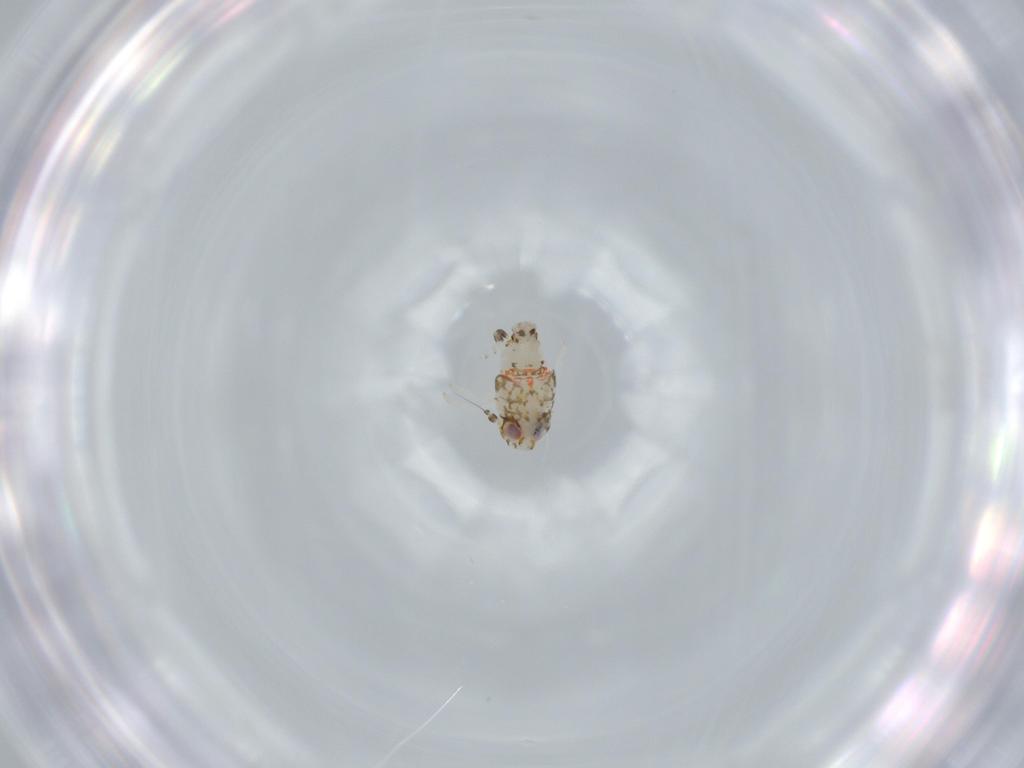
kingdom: Animalia
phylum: Arthropoda
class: Insecta
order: Hemiptera
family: Nogodinidae
